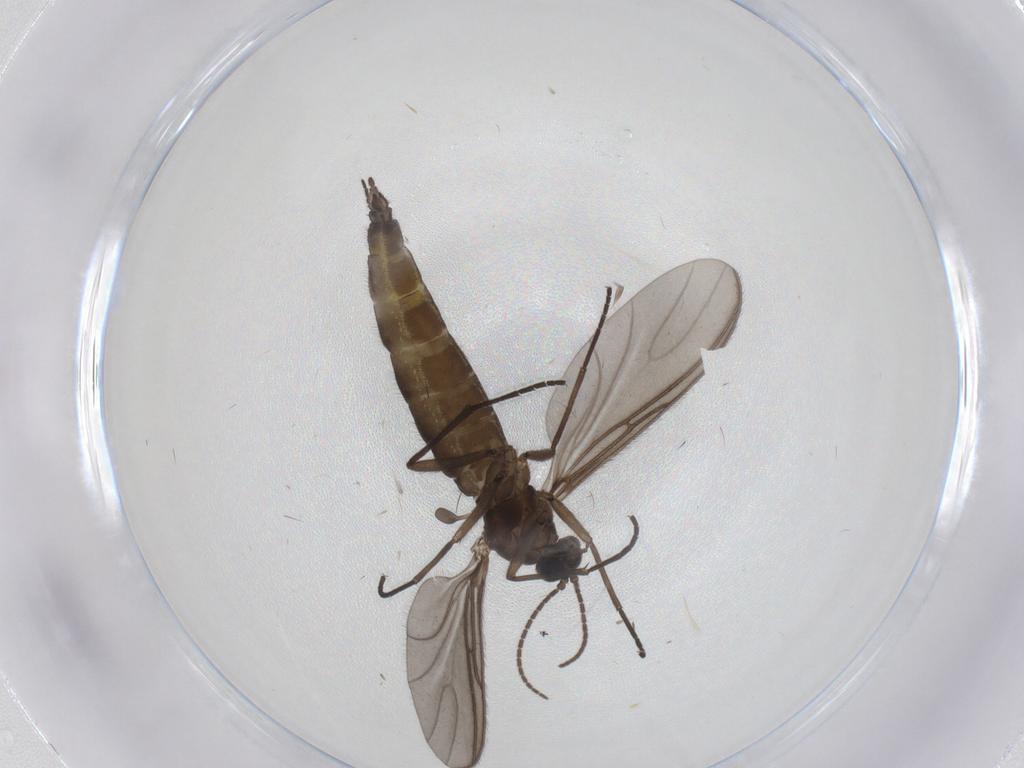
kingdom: Animalia
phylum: Arthropoda
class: Insecta
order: Diptera
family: Sciaridae
